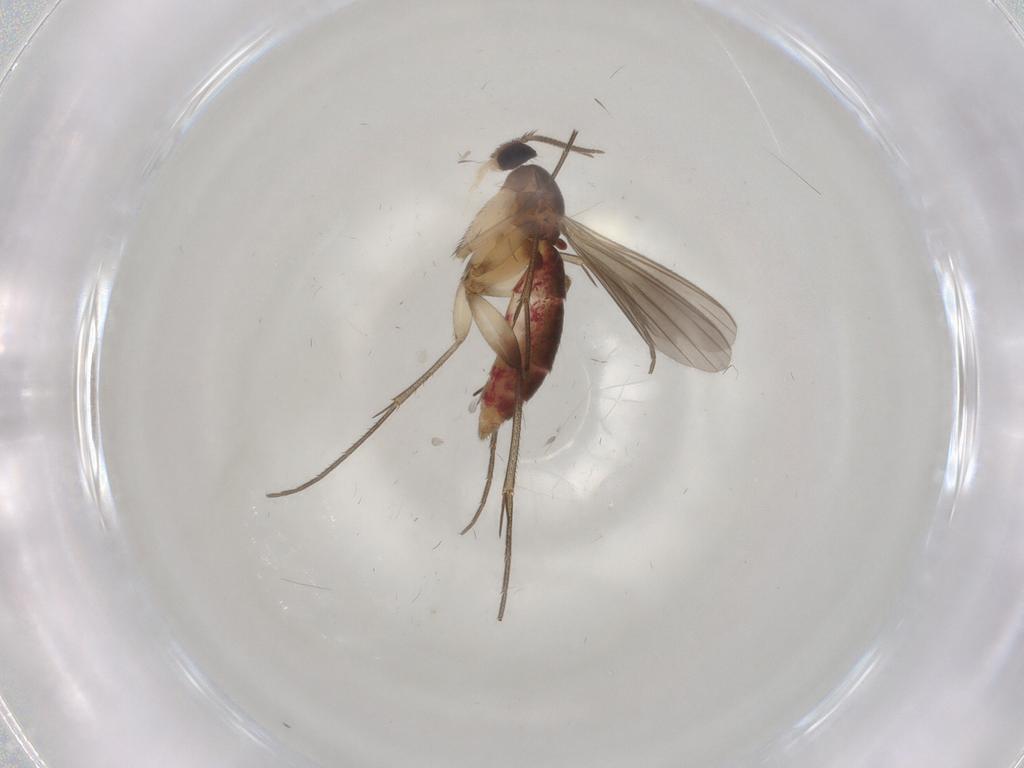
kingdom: Animalia
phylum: Arthropoda
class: Insecta
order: Diptera
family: Mycetophilidae
